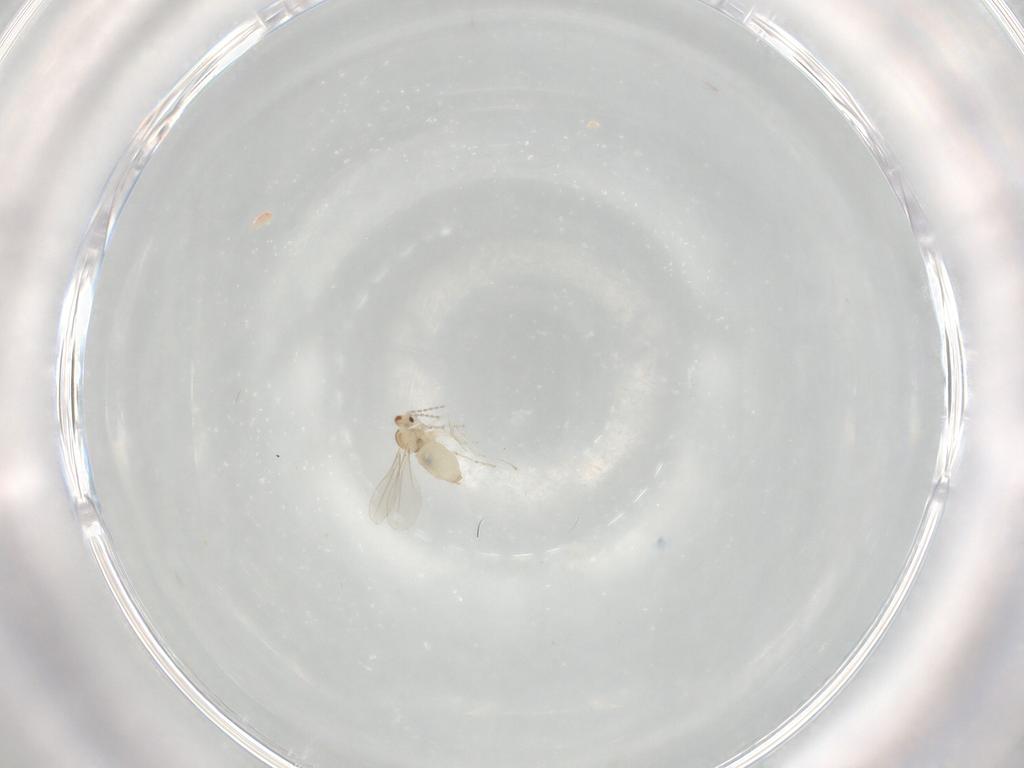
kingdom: Animalia
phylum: Arthropoda
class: Insecta
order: Diptera
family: Cecidomyiidae
